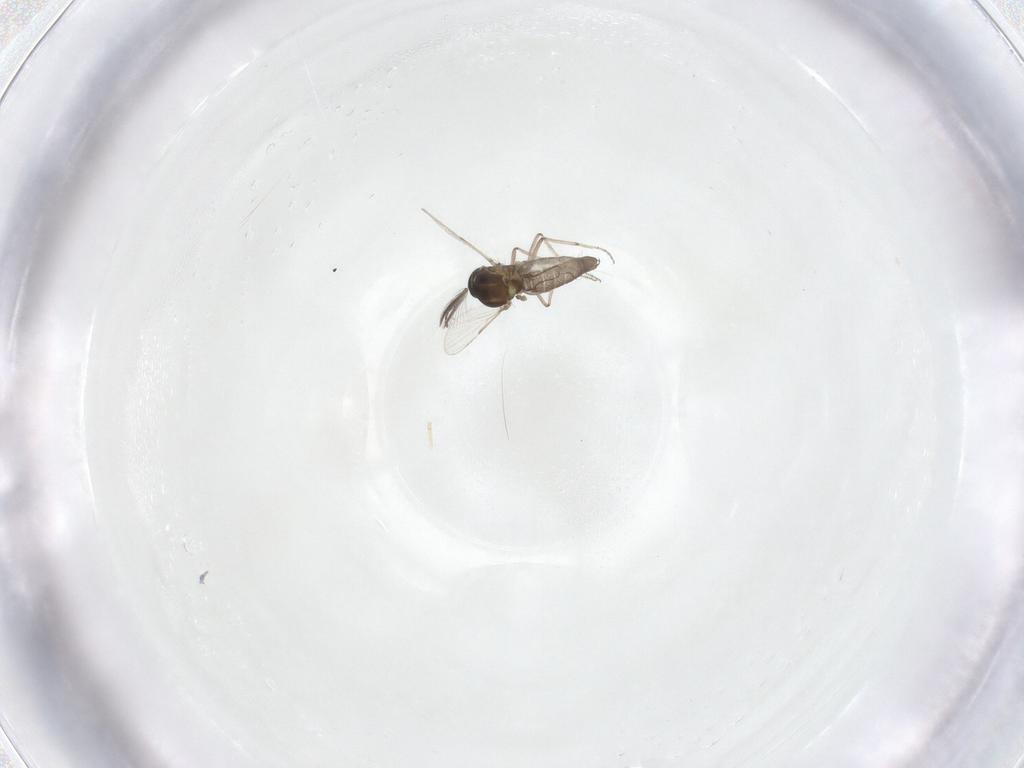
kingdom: Animalia
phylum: Arthropoda
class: Insecta
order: Diptera
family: Ceratopogonidae
